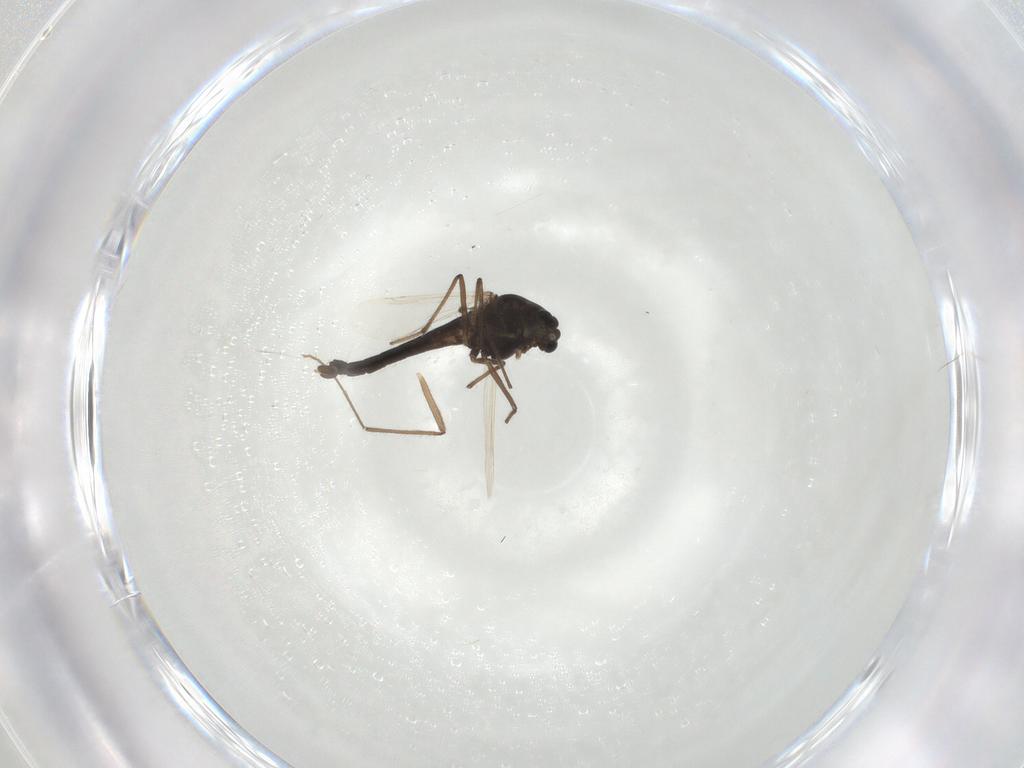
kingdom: Animalia
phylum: Arthropoda
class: Insecta
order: Diptera
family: Chironomidae
